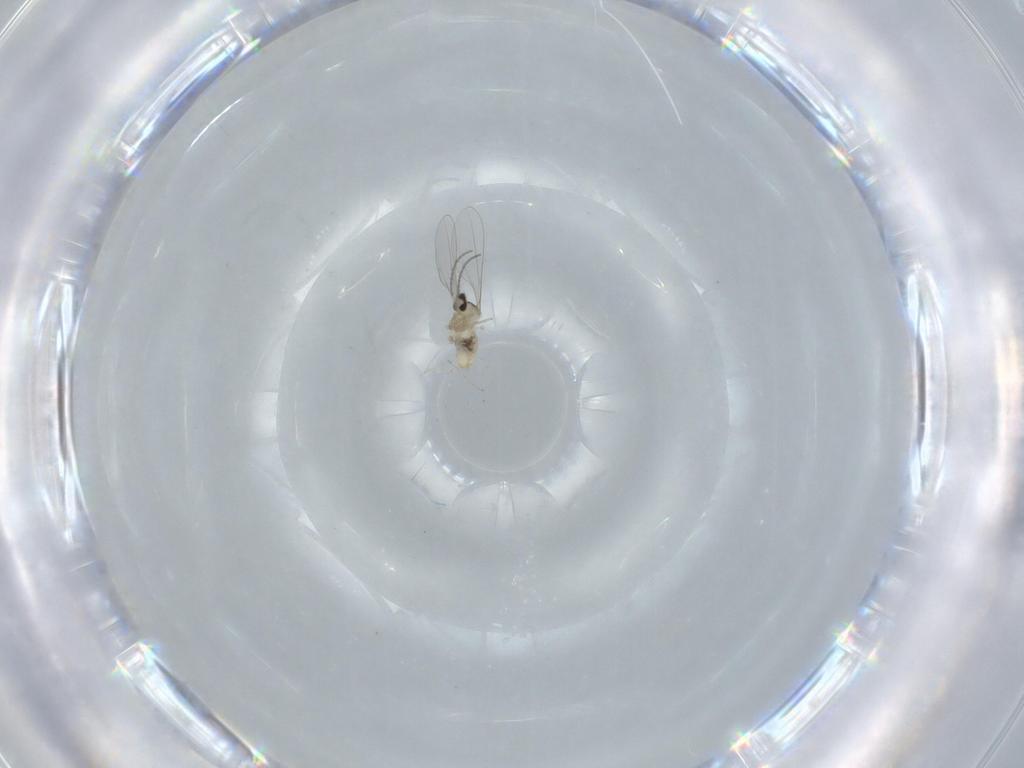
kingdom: Animalia
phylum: Arthropoda
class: Insecta
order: Diptera
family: Cecidomyiidae
